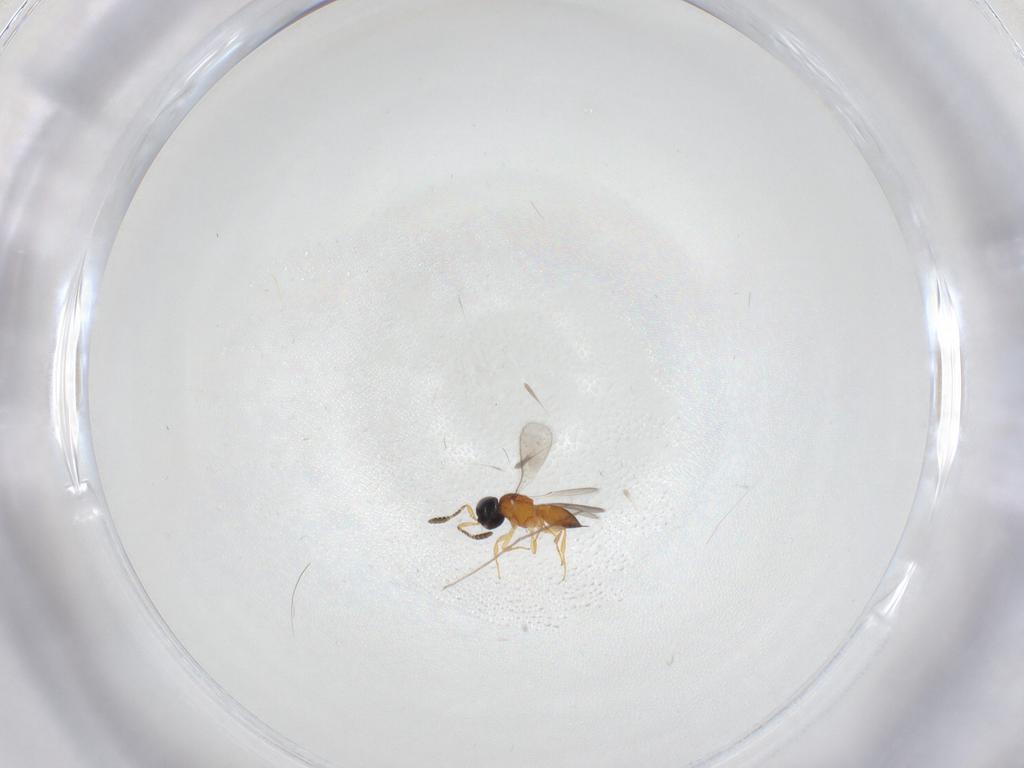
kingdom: Animalia
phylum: Arthropoda
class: Insecta
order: Hymenoptera
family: Scelionidae
